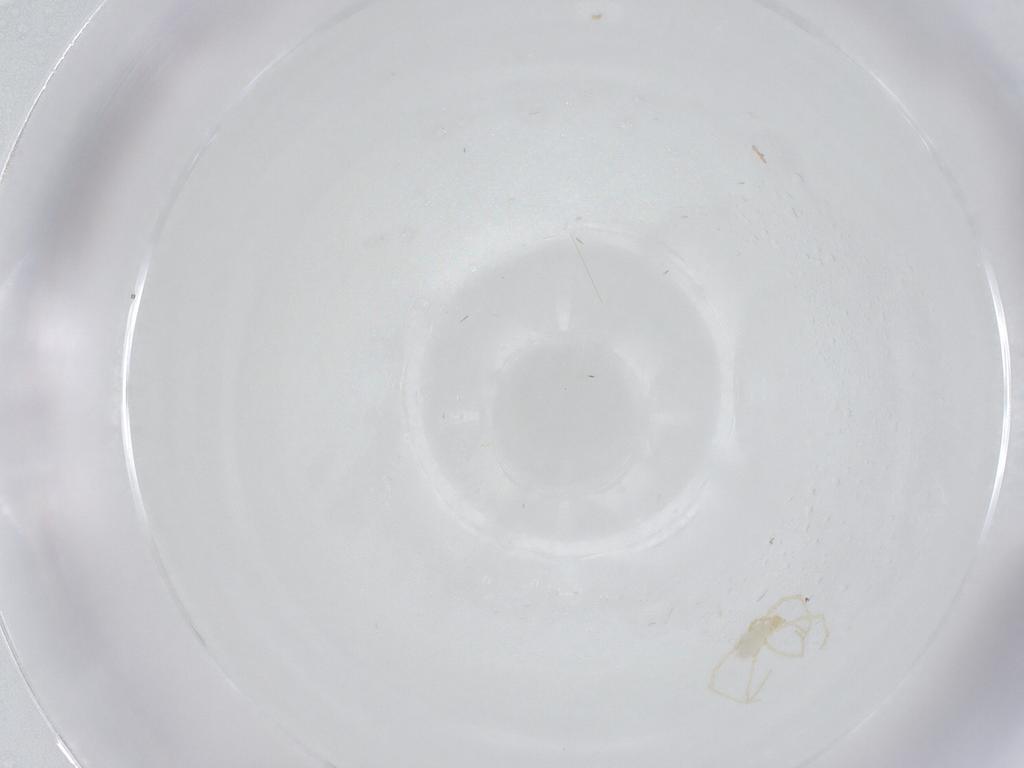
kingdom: Animalia
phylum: Arthropoda
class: Arachnida
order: Trombidiformes
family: Erythraeidae
